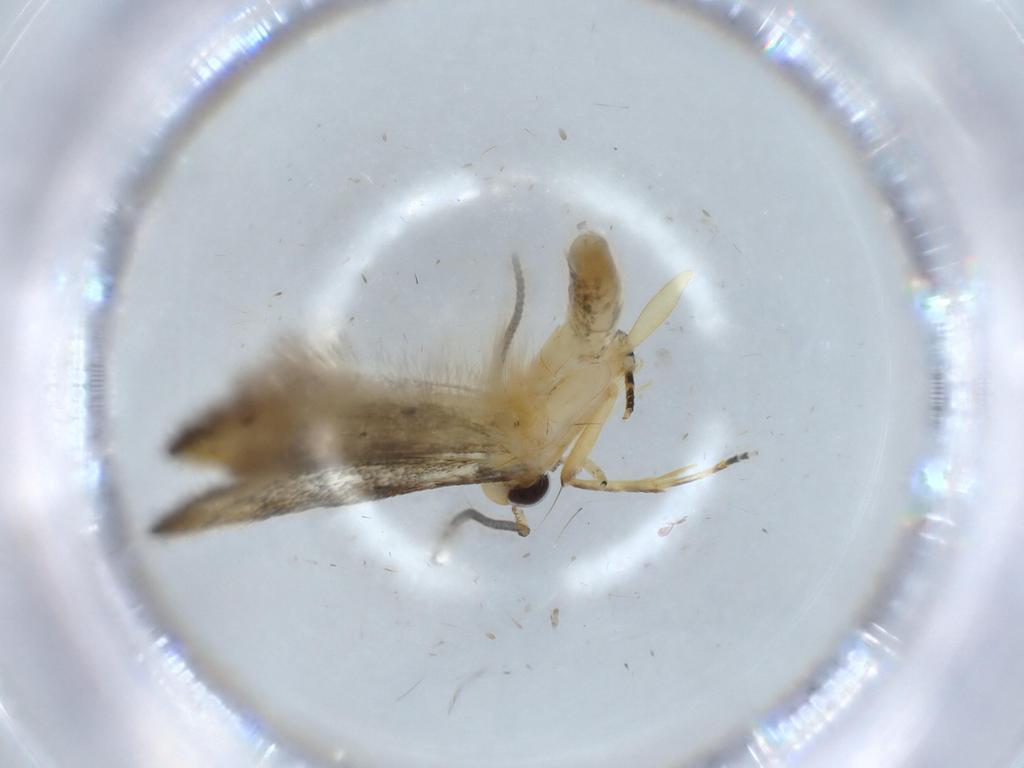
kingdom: Animalia
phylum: Arthropoda
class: Insecta
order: Lepidoptera
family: Autostichidae
